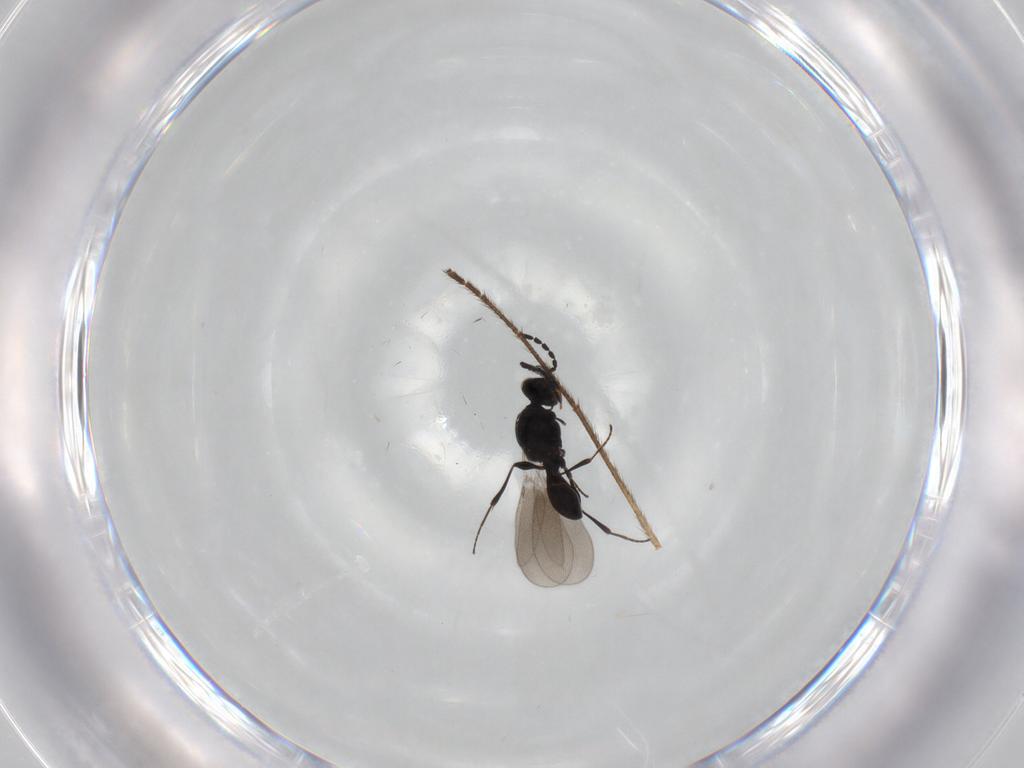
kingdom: Animalia
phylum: Arthropoda
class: Insecta
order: Hymenoptera
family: Platygastridae
